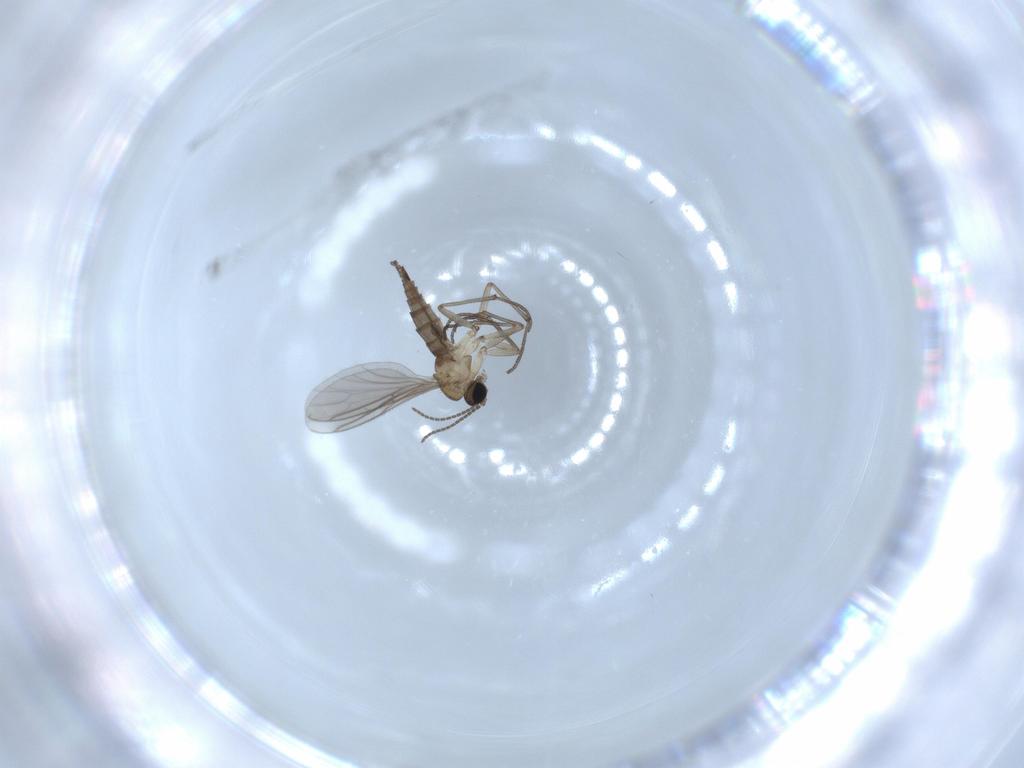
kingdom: Animalia
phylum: Arthropoda
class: Insecta
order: Diptera
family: Sciaridae
